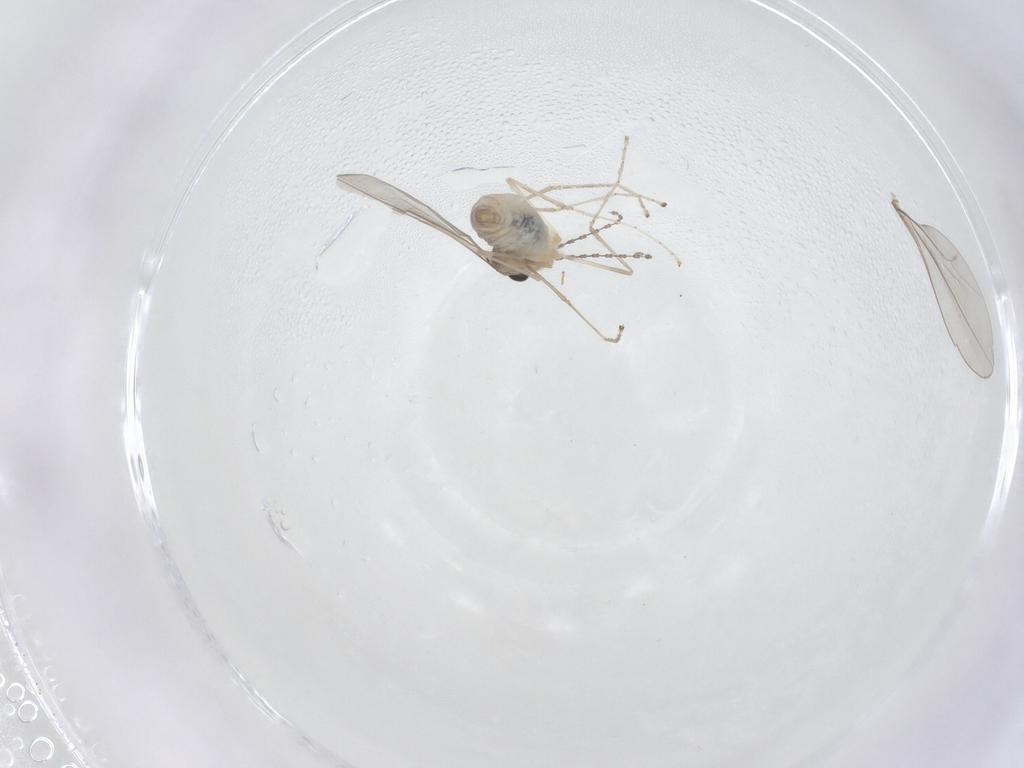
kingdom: Animalia
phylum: Arthropoda
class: Insecta
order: Diptera
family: Cecidomyiidae
